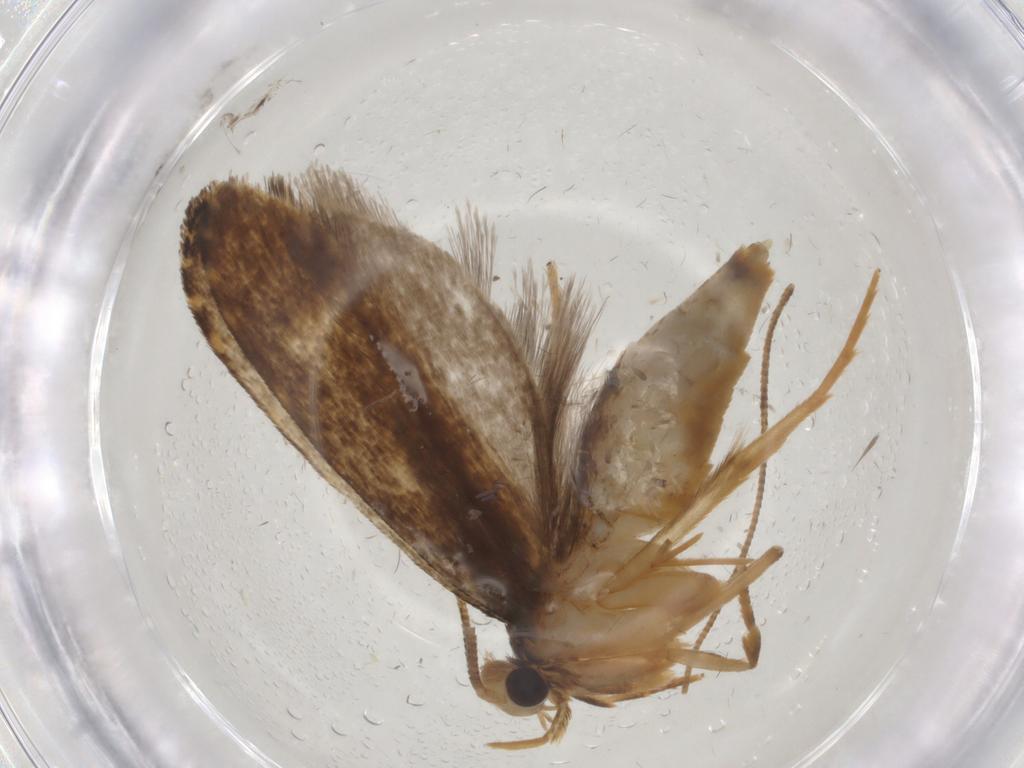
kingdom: Animalia
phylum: Arthropoda
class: Insecta
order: Lepidoptera
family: Tineidae
